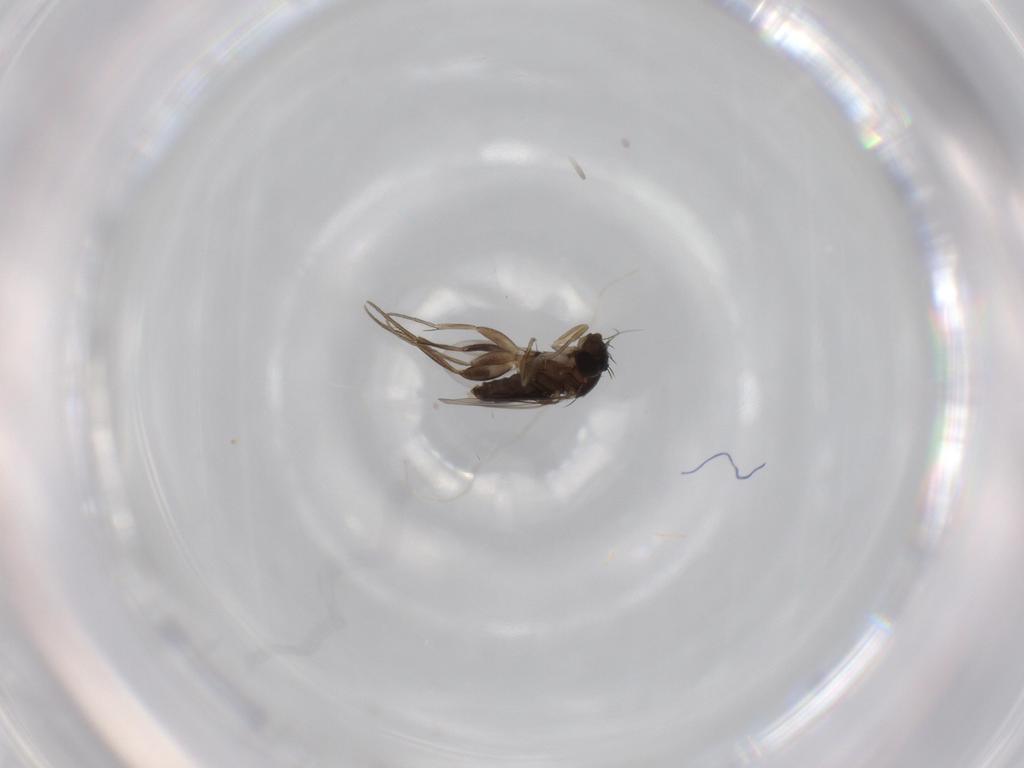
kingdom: Animalia
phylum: Arthropoda
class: Insecta
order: Diptera
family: Phoridae
